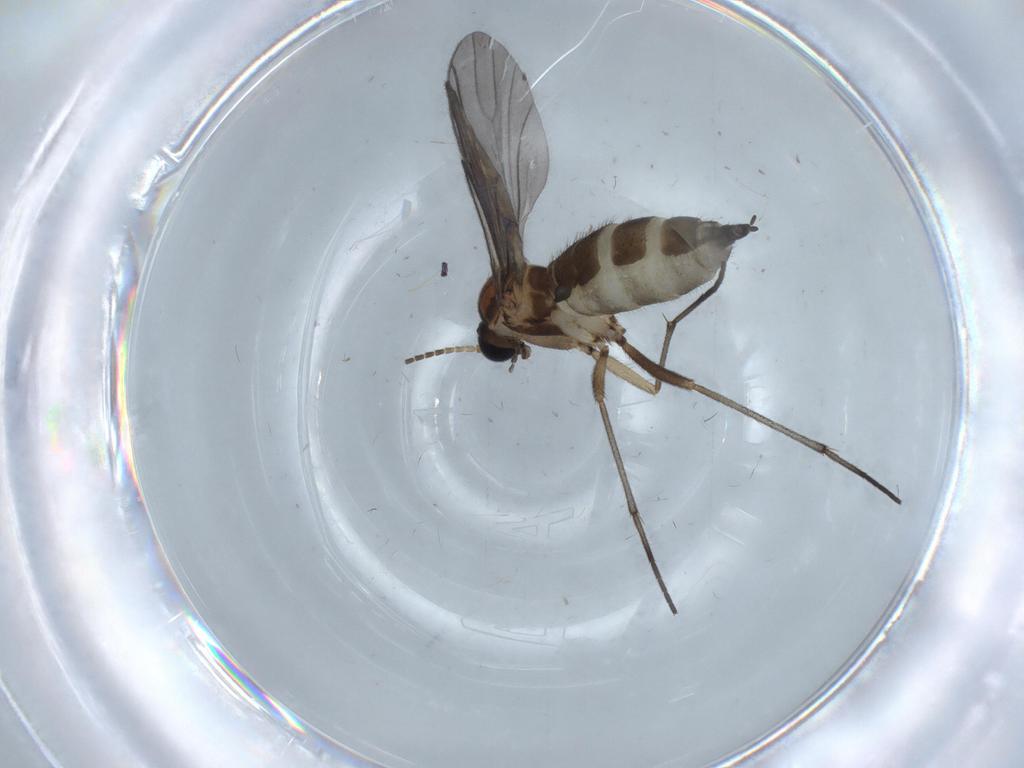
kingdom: Animalia
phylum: Arthropoda
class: Insecta
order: Diptera
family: Sciaridae
